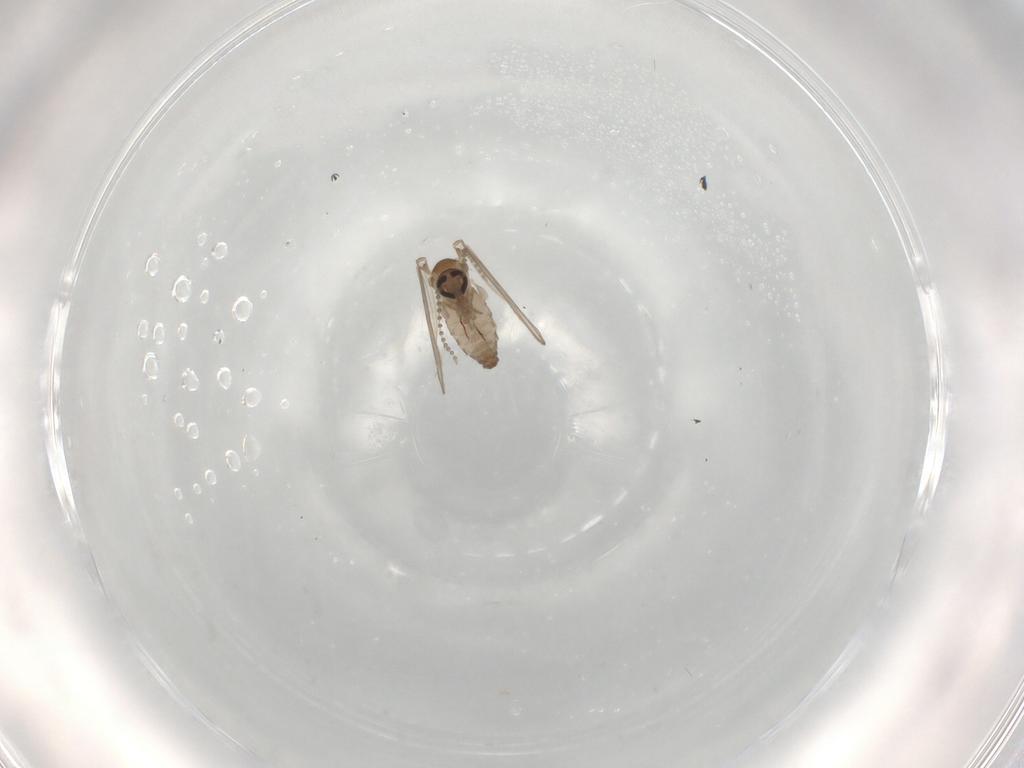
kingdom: Animalia
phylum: Arthropoda
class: Insecta
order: Diptera
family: Psychodidae
